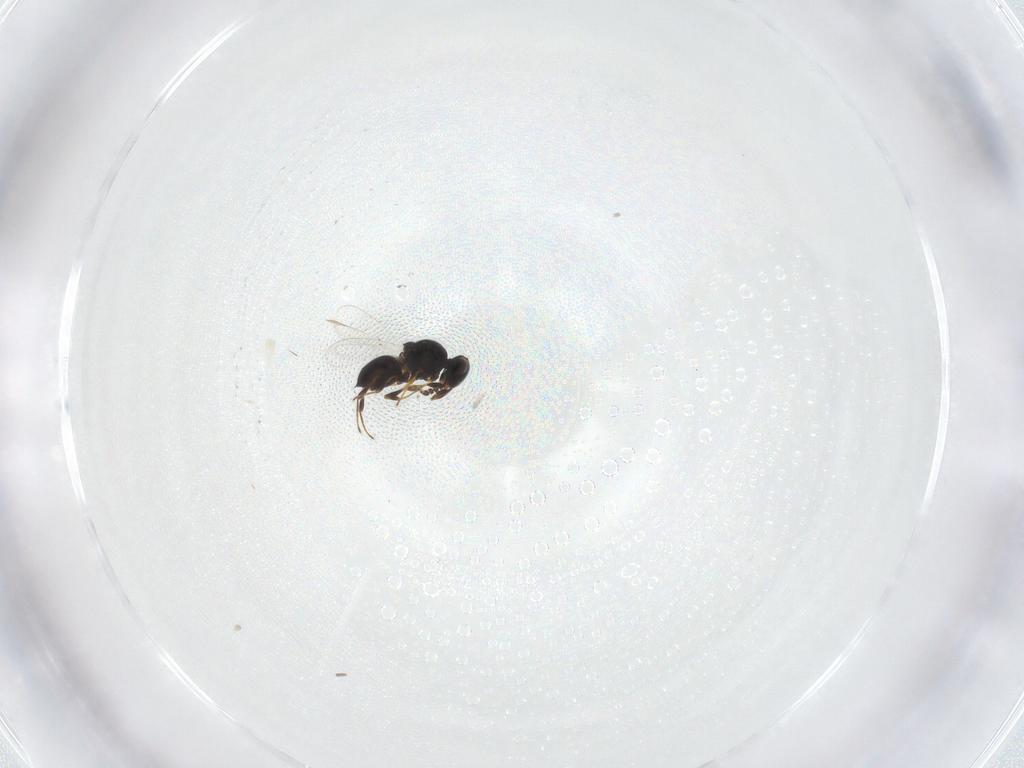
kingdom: Animalia
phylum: Arthropoda
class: Insecta
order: Hymenoptera
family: Platygastridae
